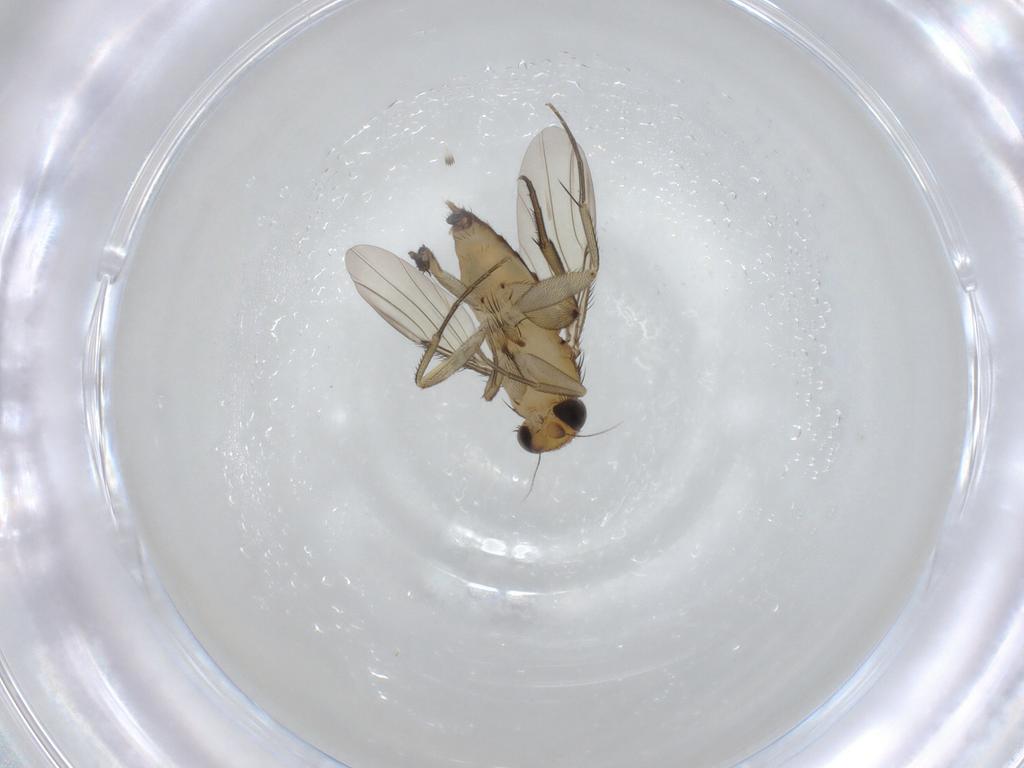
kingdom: Animalia
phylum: Arthropoda
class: Insecta
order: Diptera
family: Phoridae
